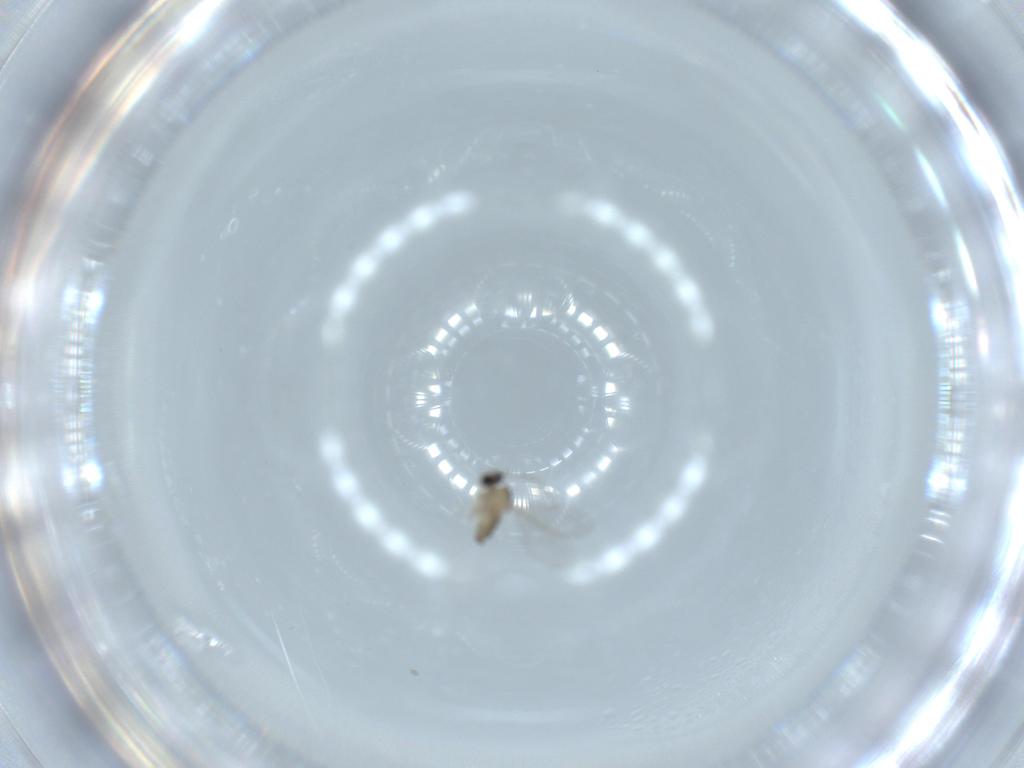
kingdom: Animalia
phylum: Arthropoda
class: Insecta
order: Diptera
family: Cecidomyiidae
